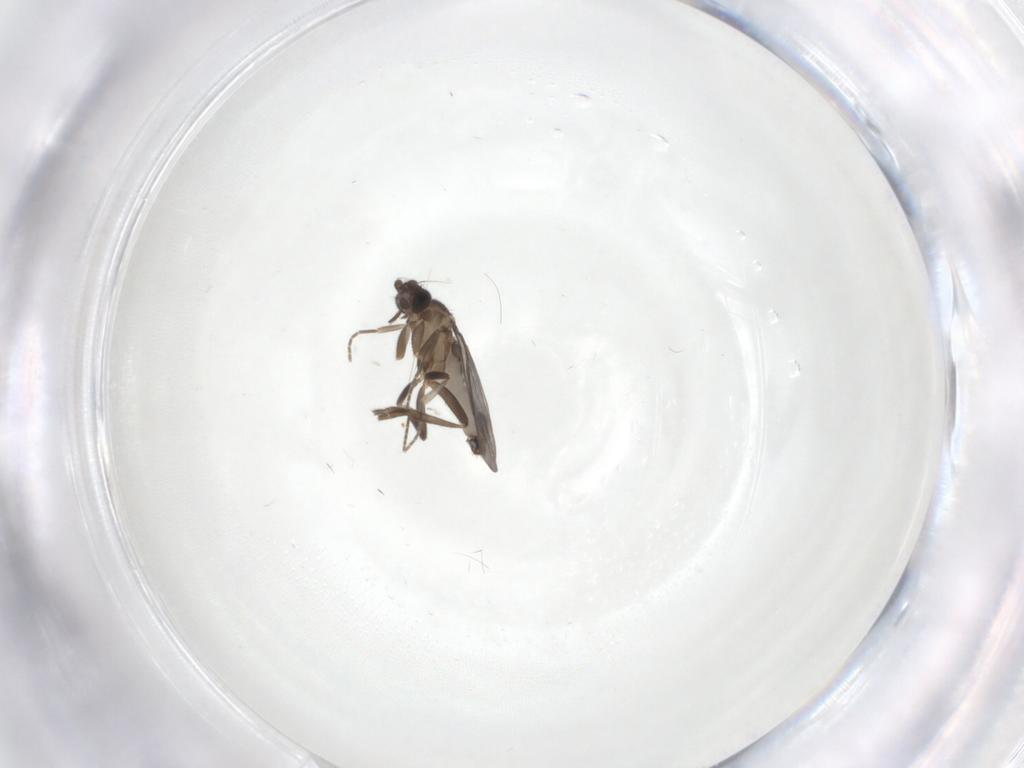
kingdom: Animalia
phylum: Arthropoda
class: Insecta
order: Diptera
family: Phoridae
